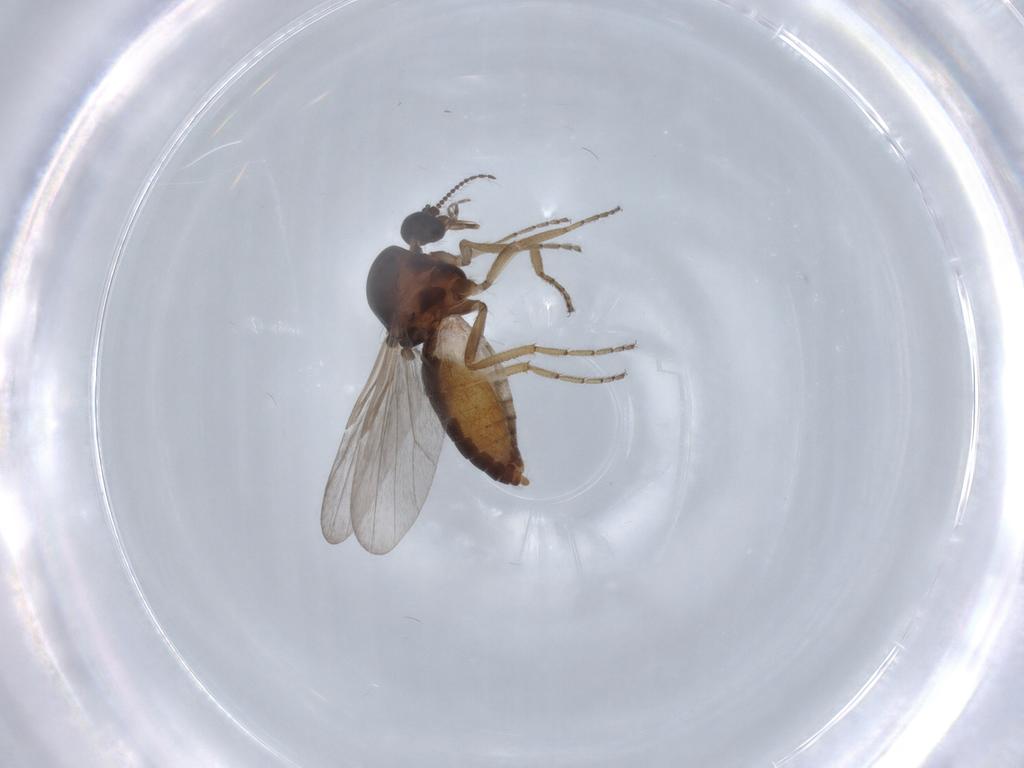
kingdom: Animalia
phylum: Arthropoda
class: Insecta
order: Diptera
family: Ceratopogonidae
